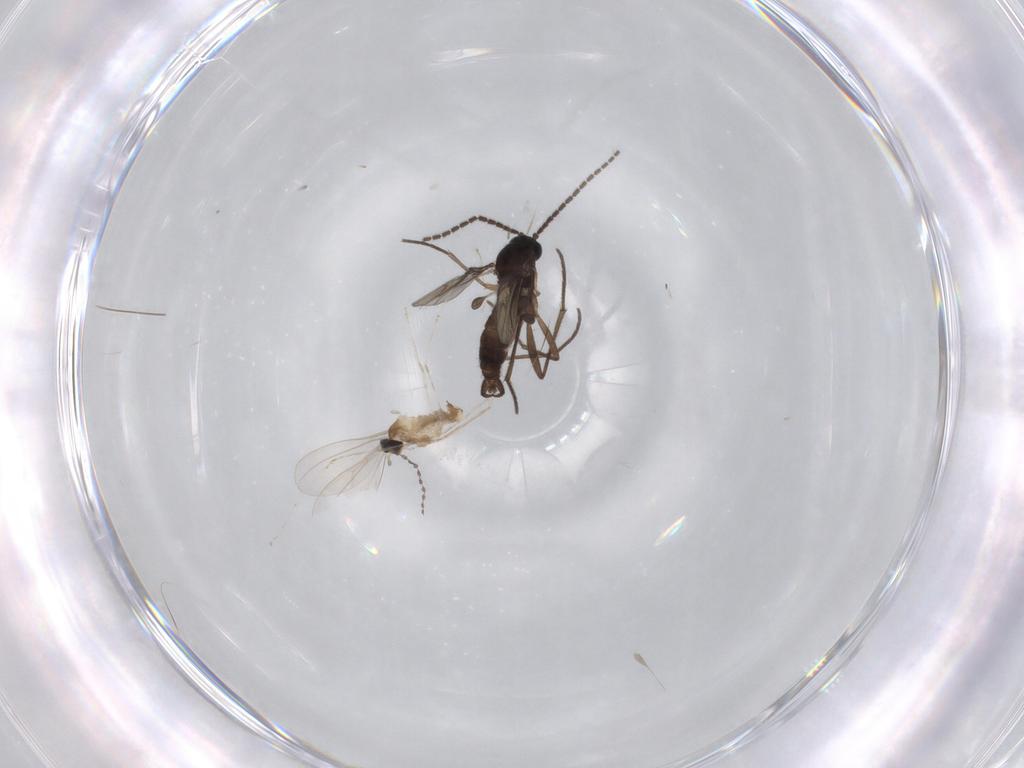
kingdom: Animalia
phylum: Arthropoda
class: Insecta
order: Diptera
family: Sciaridae
